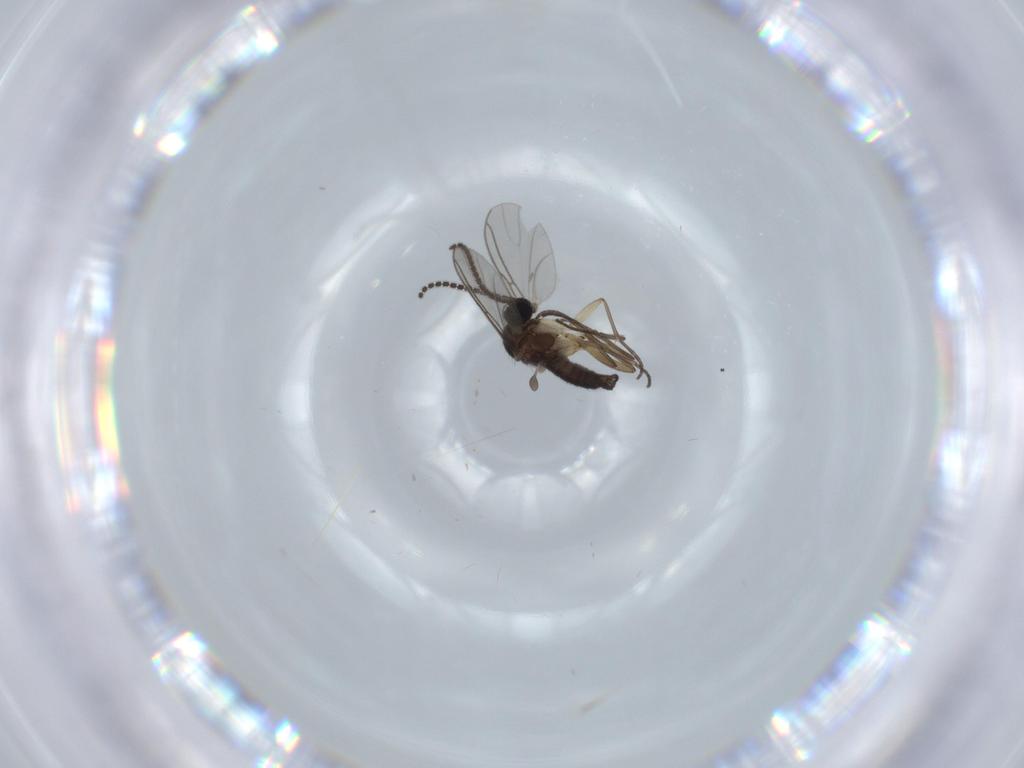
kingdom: Animalia
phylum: Arthropoda
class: Insecta
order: Diptera
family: Sciaridae
